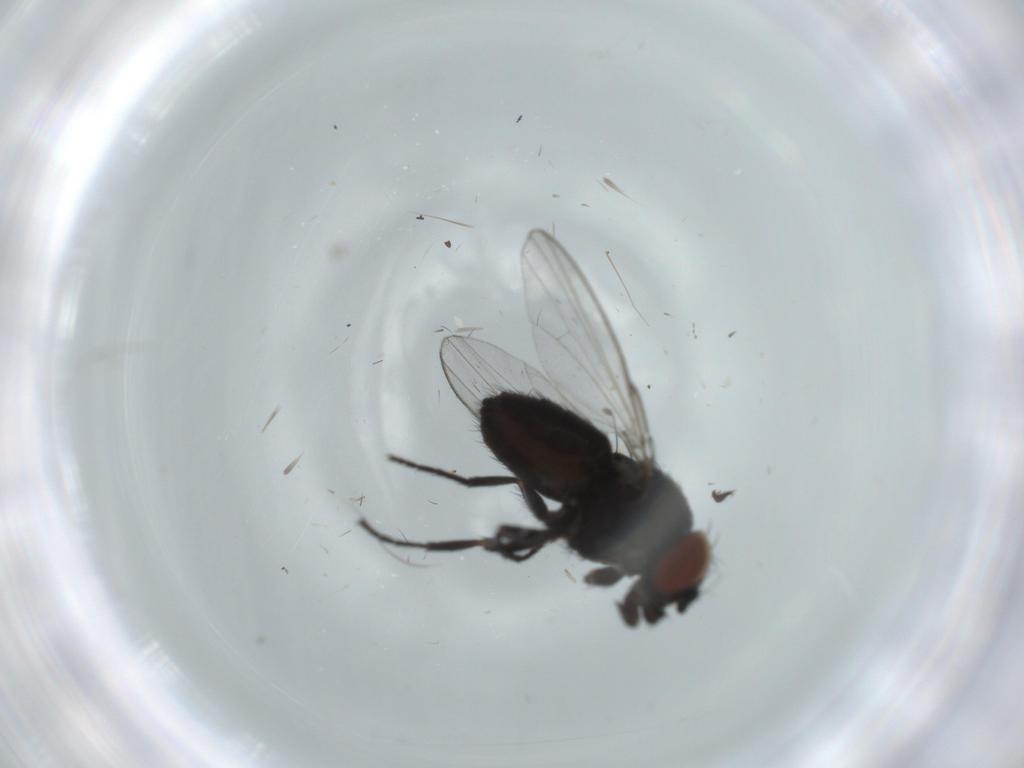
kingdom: Animalia
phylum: Arthropoda
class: Insecta
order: Diptera
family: Milichiidae
